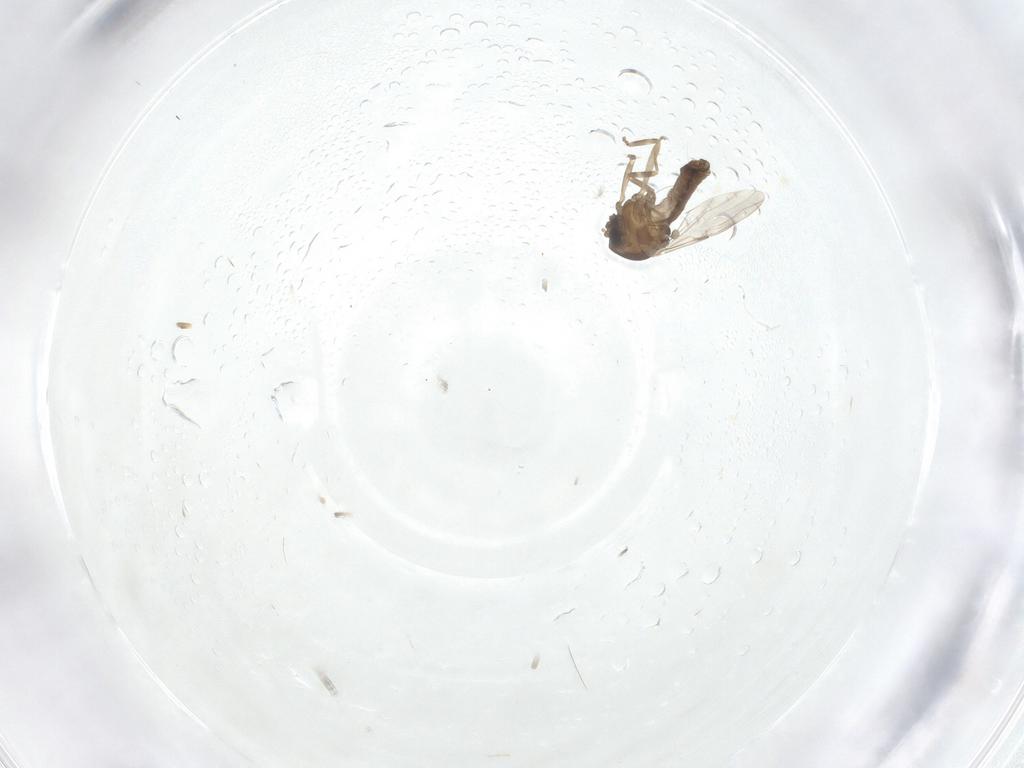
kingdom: Animalia
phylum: Arthropoda
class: Insecta
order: Diptera
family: Ceratopogonidae
